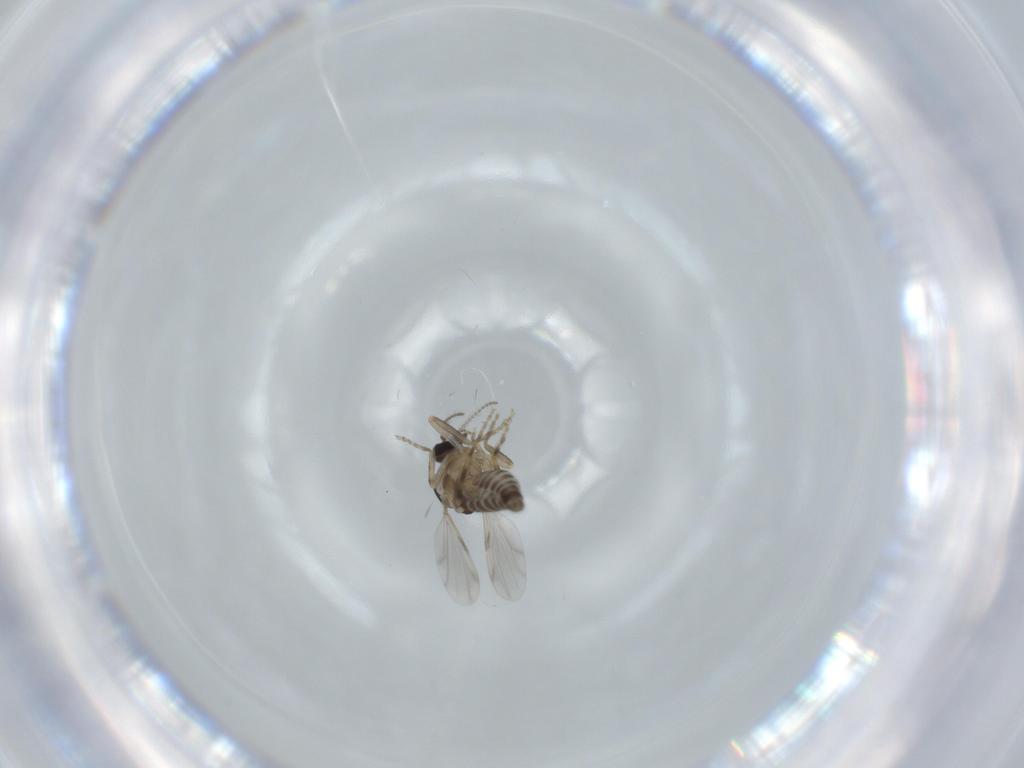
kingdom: Animalia
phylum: Arthropoda
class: Insecta
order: Diptera
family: Ceratopogonidae
